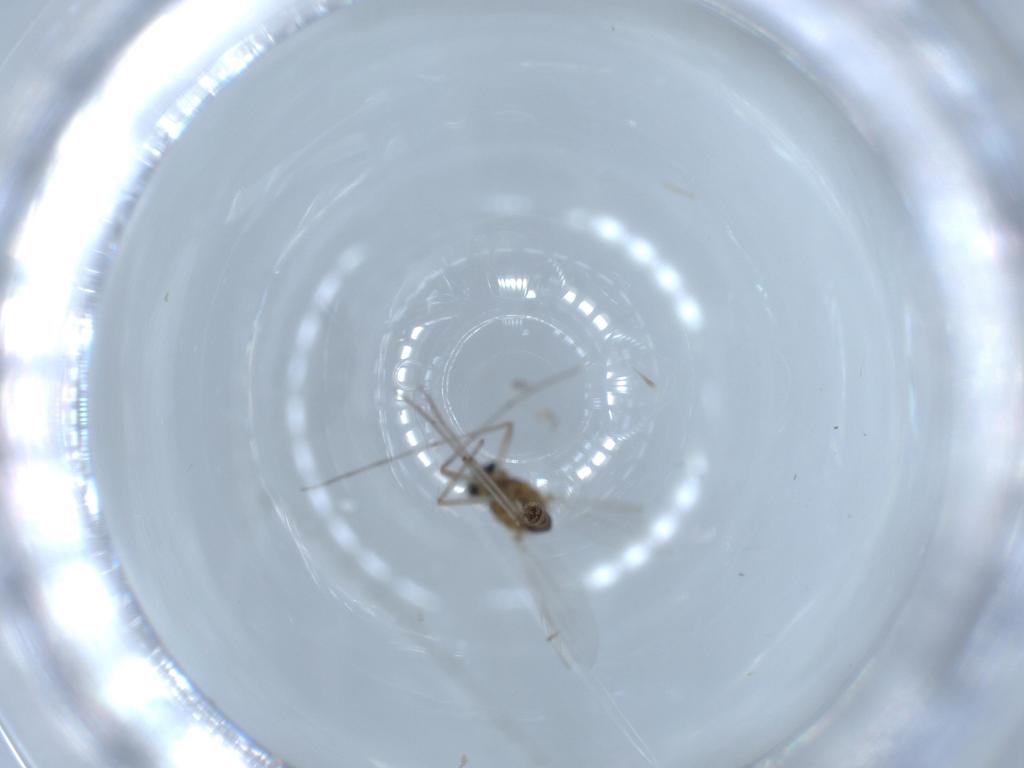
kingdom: Animalia
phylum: Arthropoda
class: Insecta
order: Diptera
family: Chironomidae
